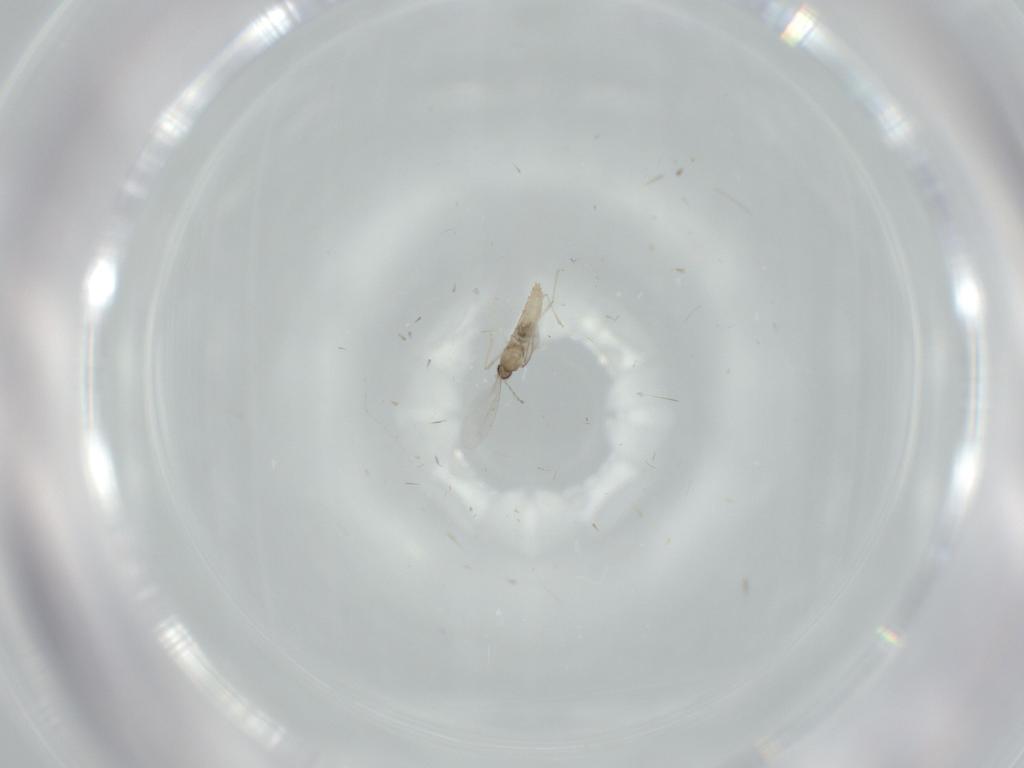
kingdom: Animalia
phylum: Arthropoda
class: Insecta
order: Diptera
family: Cecidomyiidae
